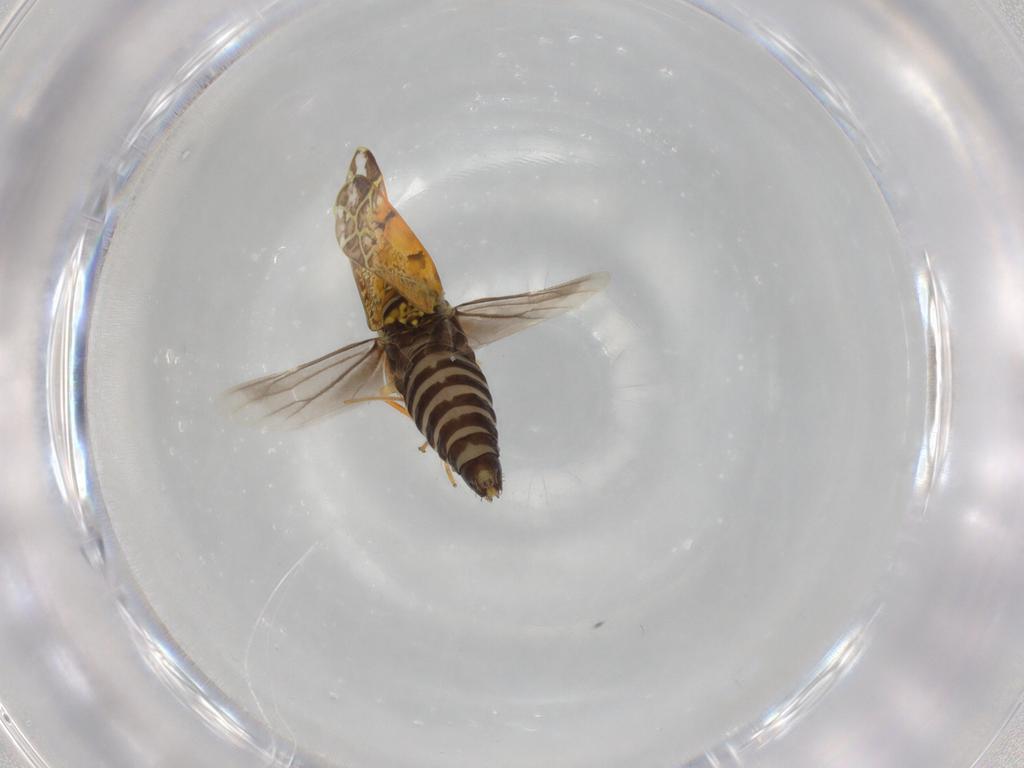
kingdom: Animalia
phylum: Arthropoda
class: Insecta
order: Hemiptera
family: Cicadellidae
